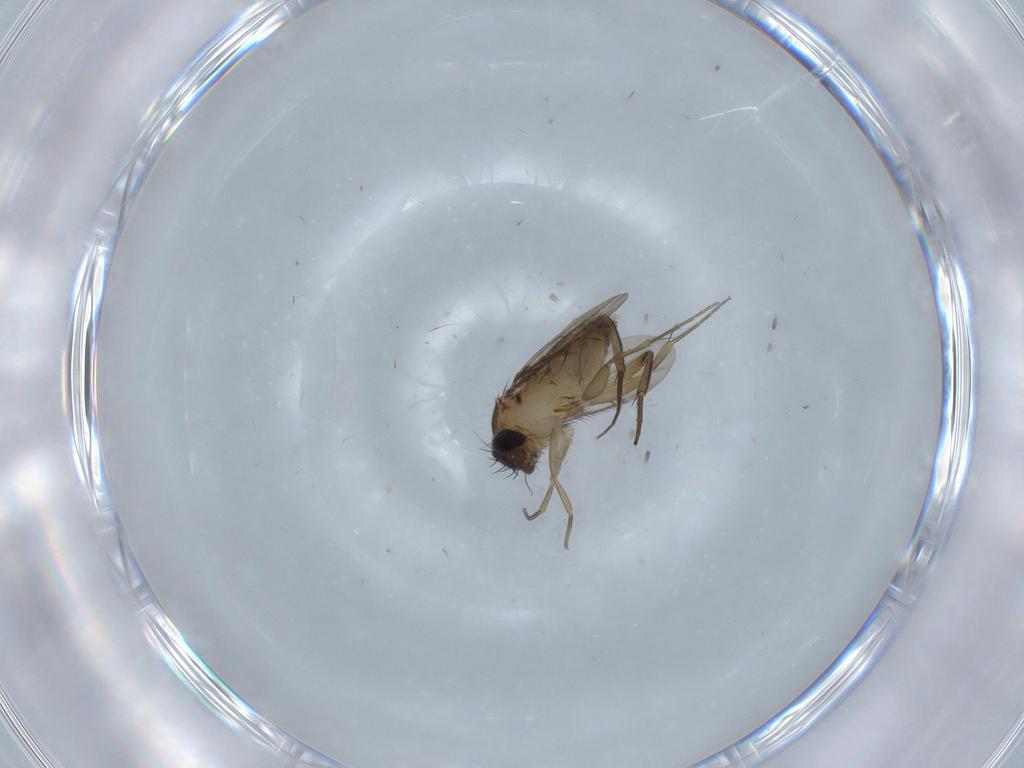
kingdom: Animalia
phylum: Arthropoda
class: Insecta
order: Diptera
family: Phoridae
